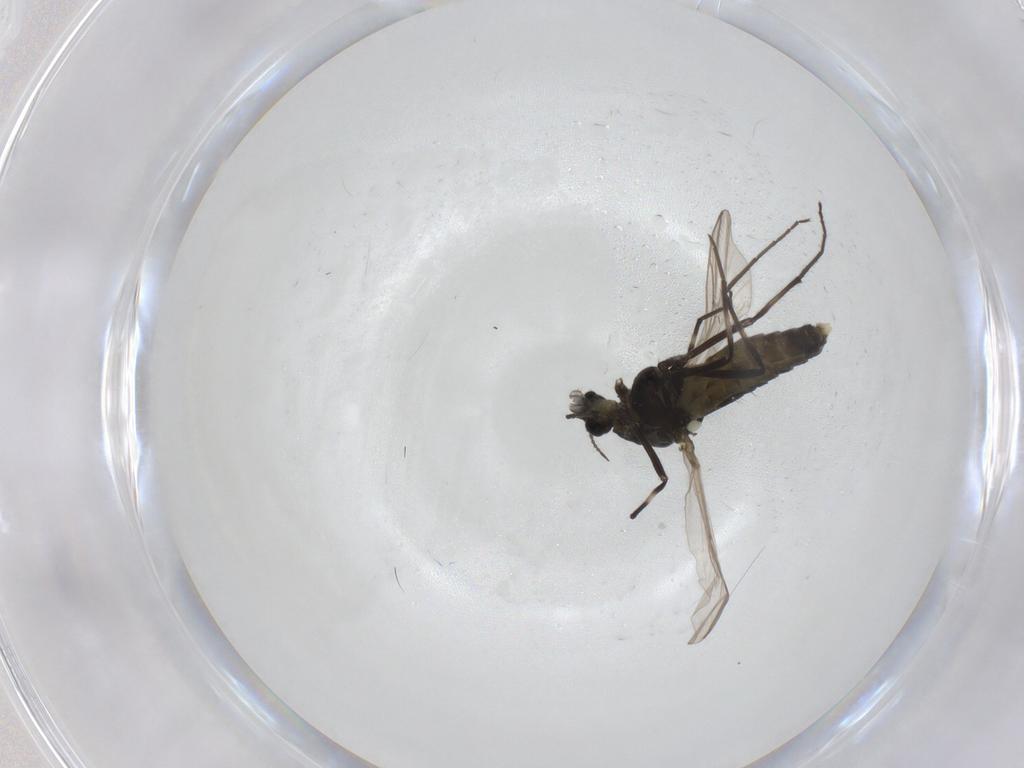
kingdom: Animalia
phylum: Arthropoda
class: Insecta
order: Diptera
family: Chironomidae
